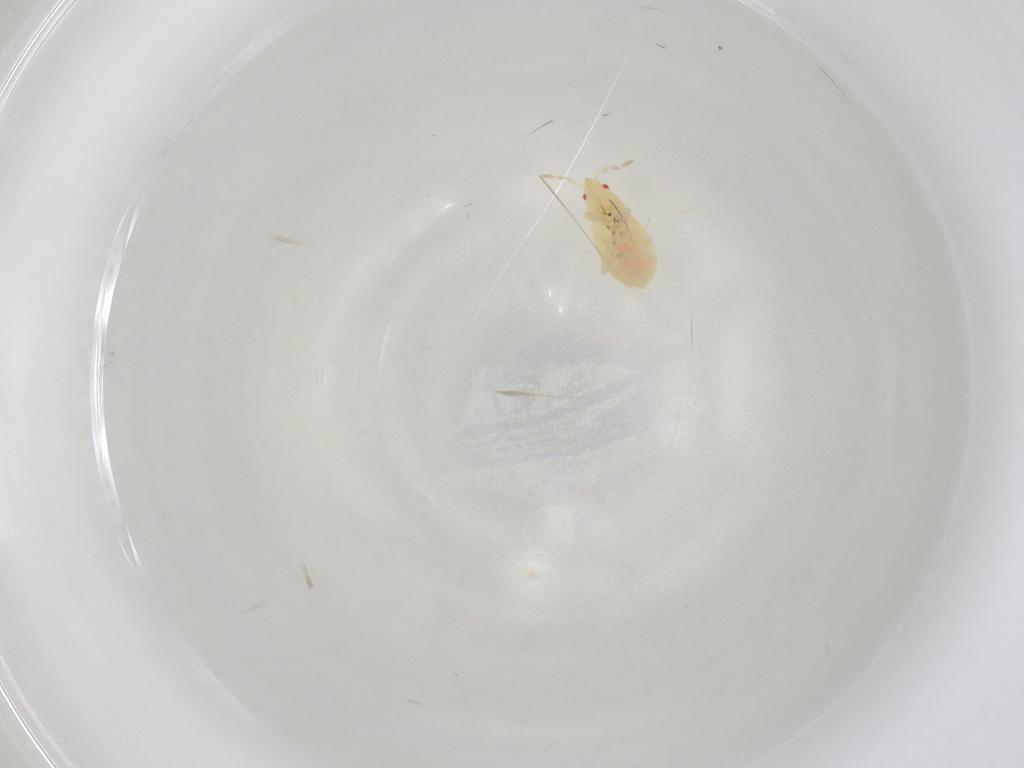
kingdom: Animalia
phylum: Arthropoda
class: Insecta
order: Hemiptera
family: Anthocoridae
